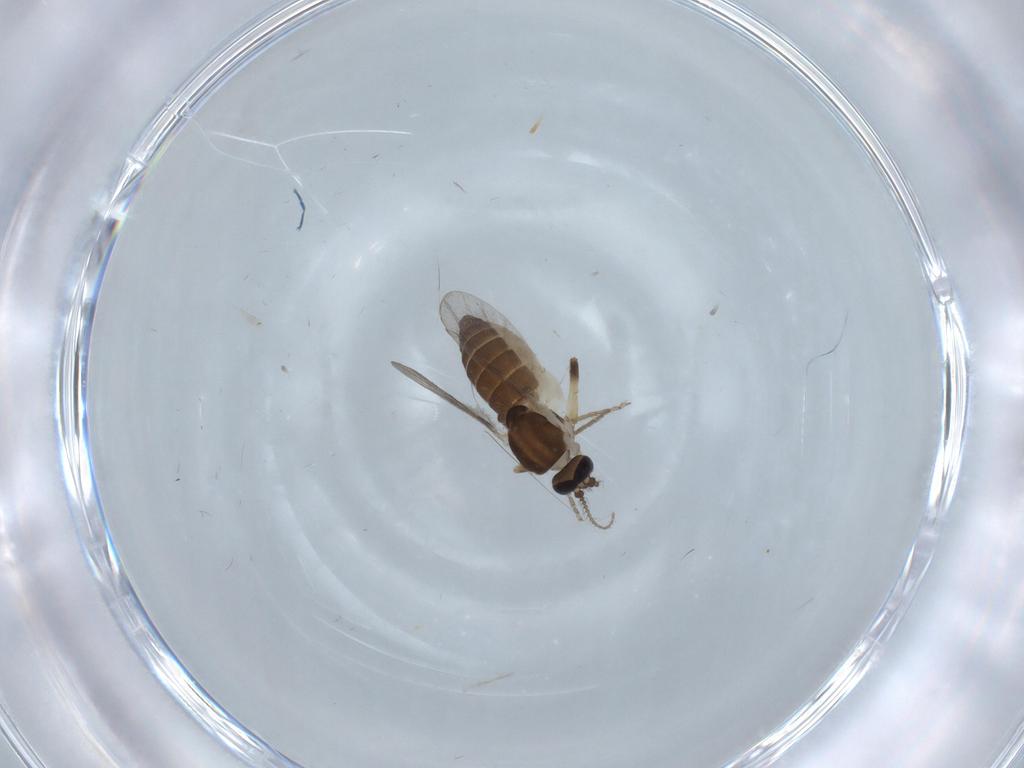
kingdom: Animalia
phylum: Arthropoda
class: Insecta
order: Diptera
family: Ceratopogonidae
